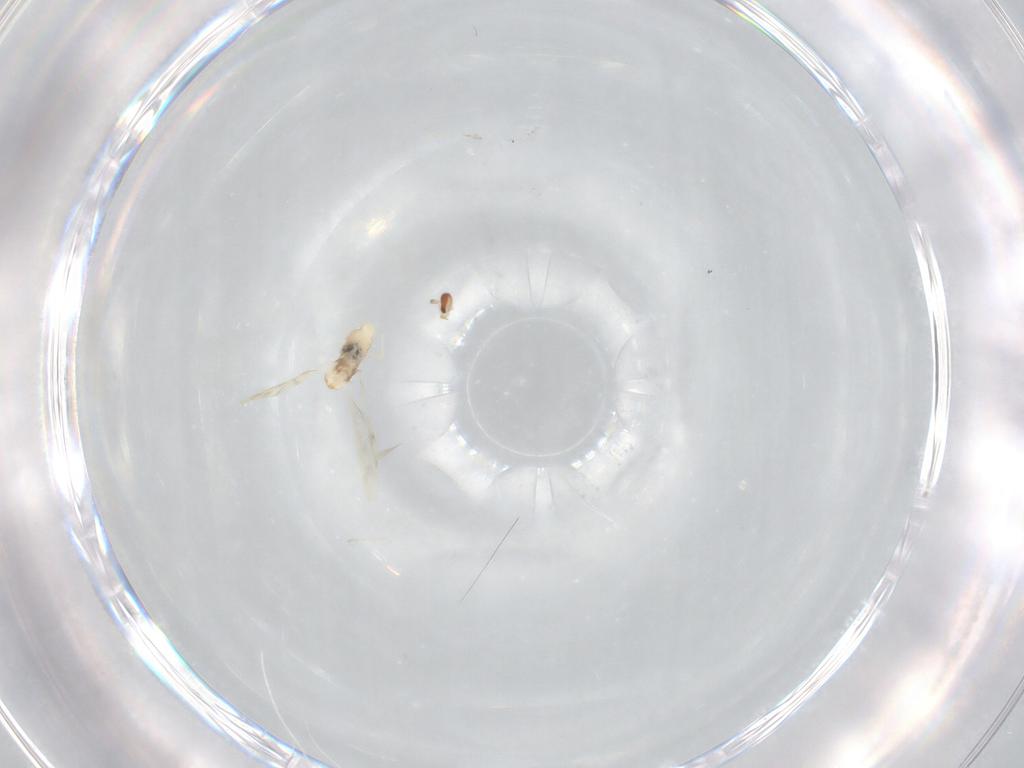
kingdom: Animalia
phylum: Arthropoda
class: Insecta
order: Diptera
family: Cecidomyiidae
